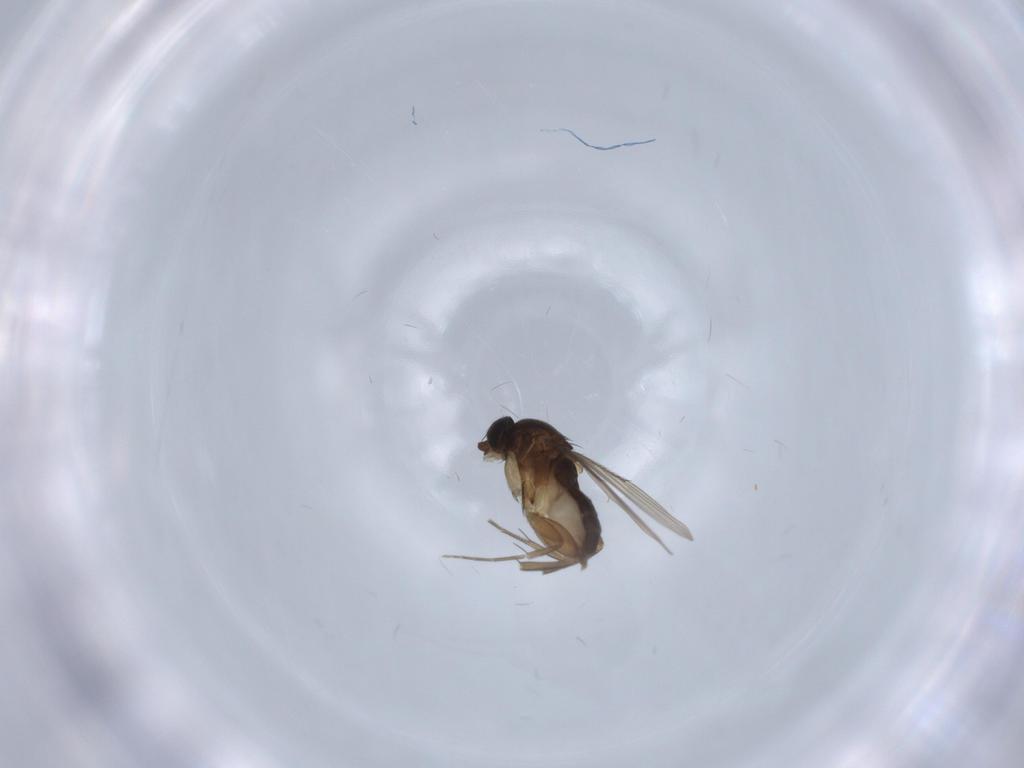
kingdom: Animalia
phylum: Arthropoda
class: Insecta
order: Diptera
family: Phoridae
